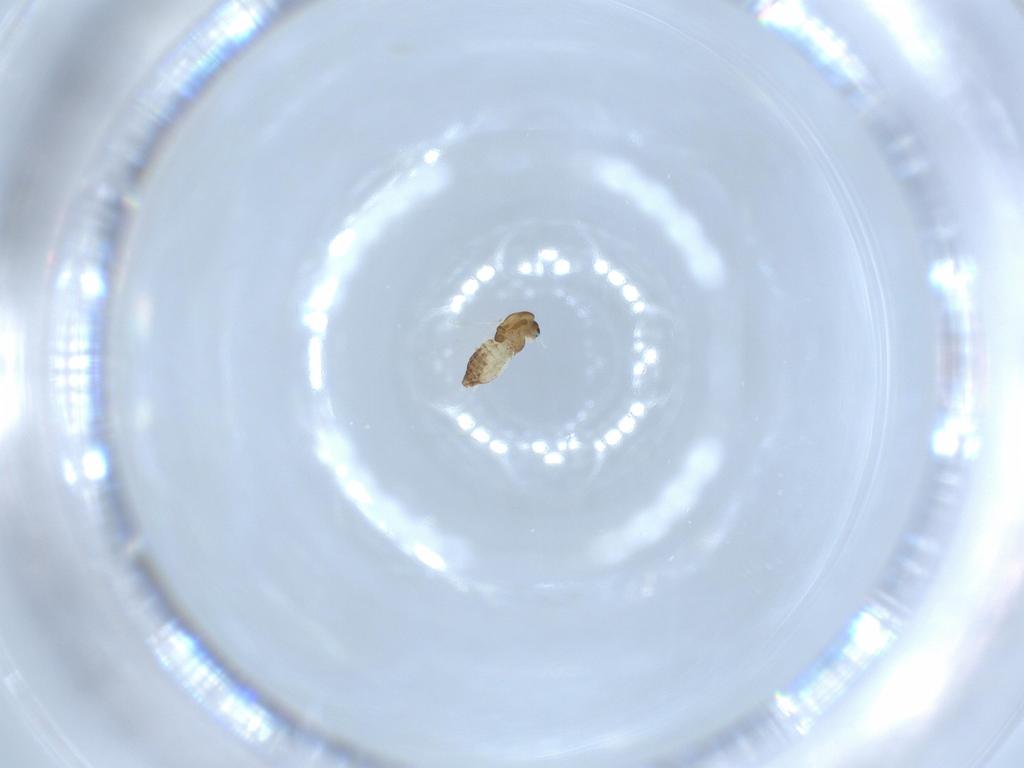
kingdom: Animalia
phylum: Arthropoda
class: Insecta
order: Diptera
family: Chironomidae
